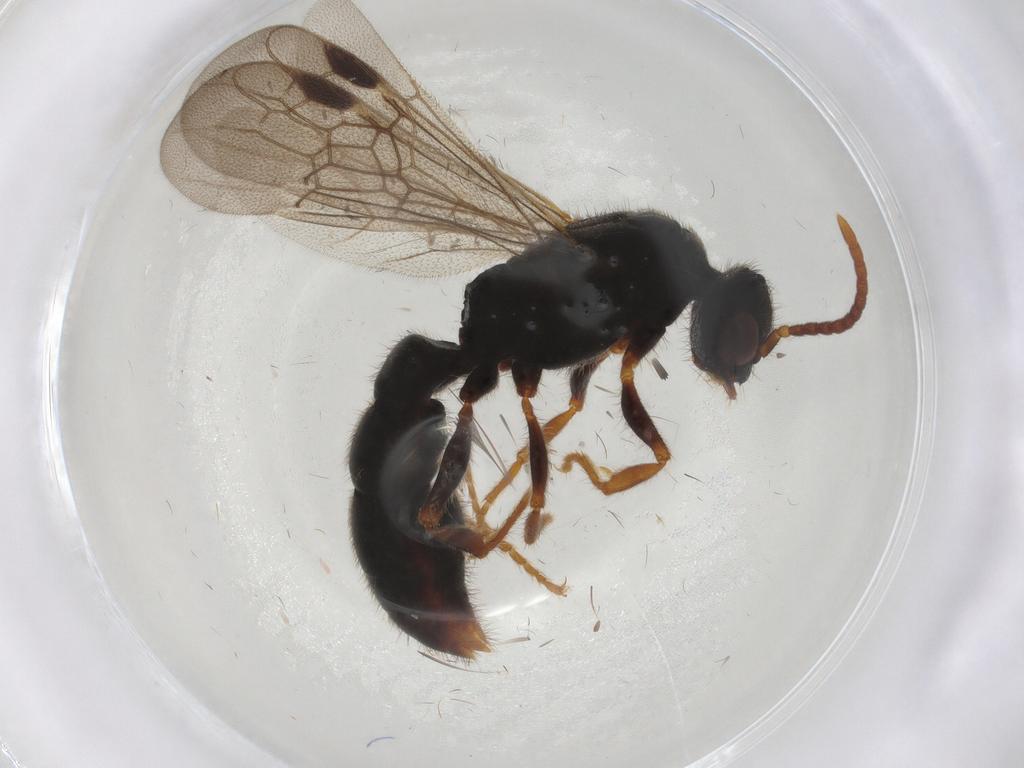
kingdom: Animalia
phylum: Arthropoda
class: Insecta
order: Hymenoptera
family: Formicidae
